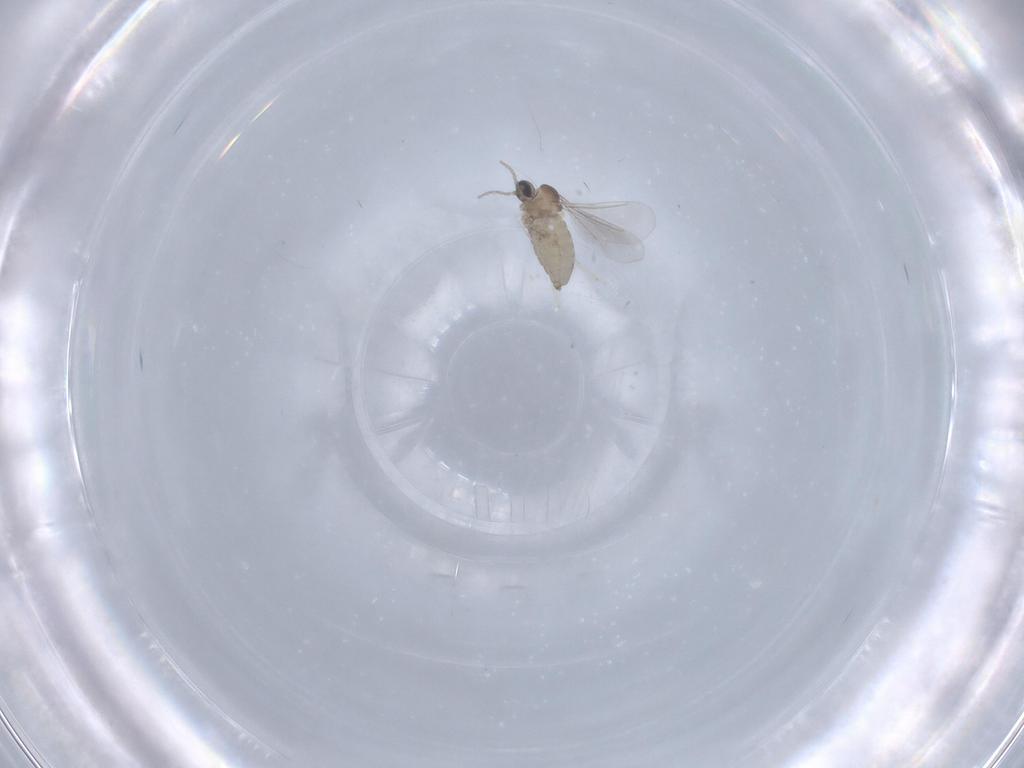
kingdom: Animalia
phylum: Arthropoda
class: Insecta
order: Diptera
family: Cecidomyiidae
